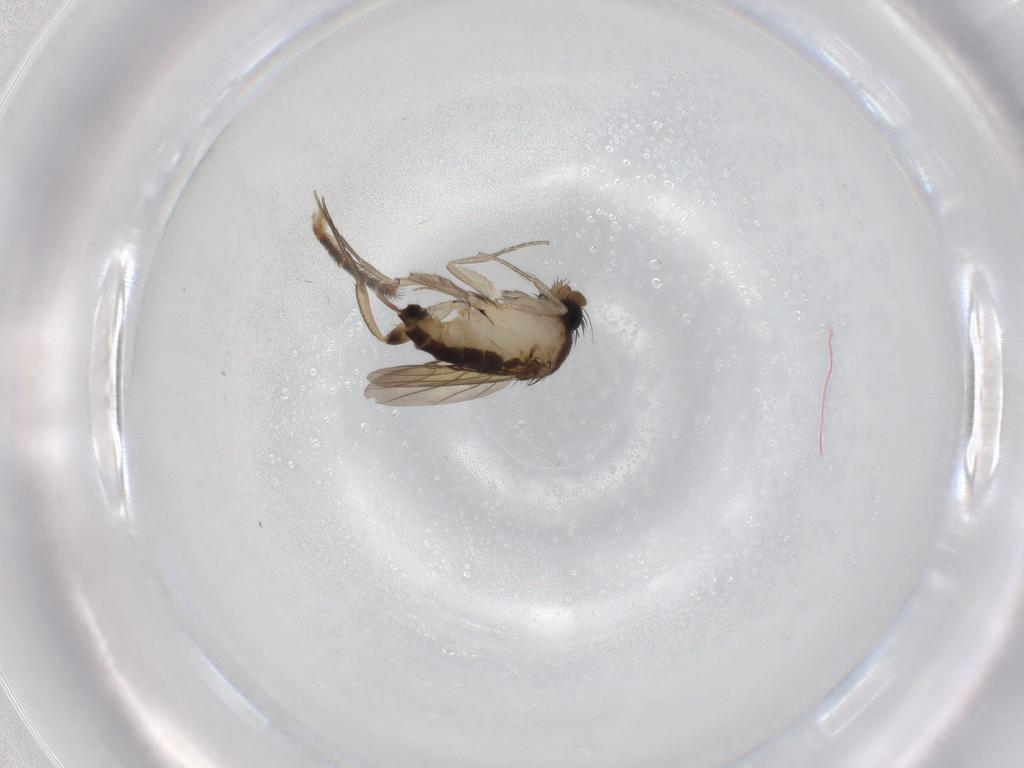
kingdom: Animalia
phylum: Arthropoda
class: Insecta
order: Diptera
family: Phoridae
